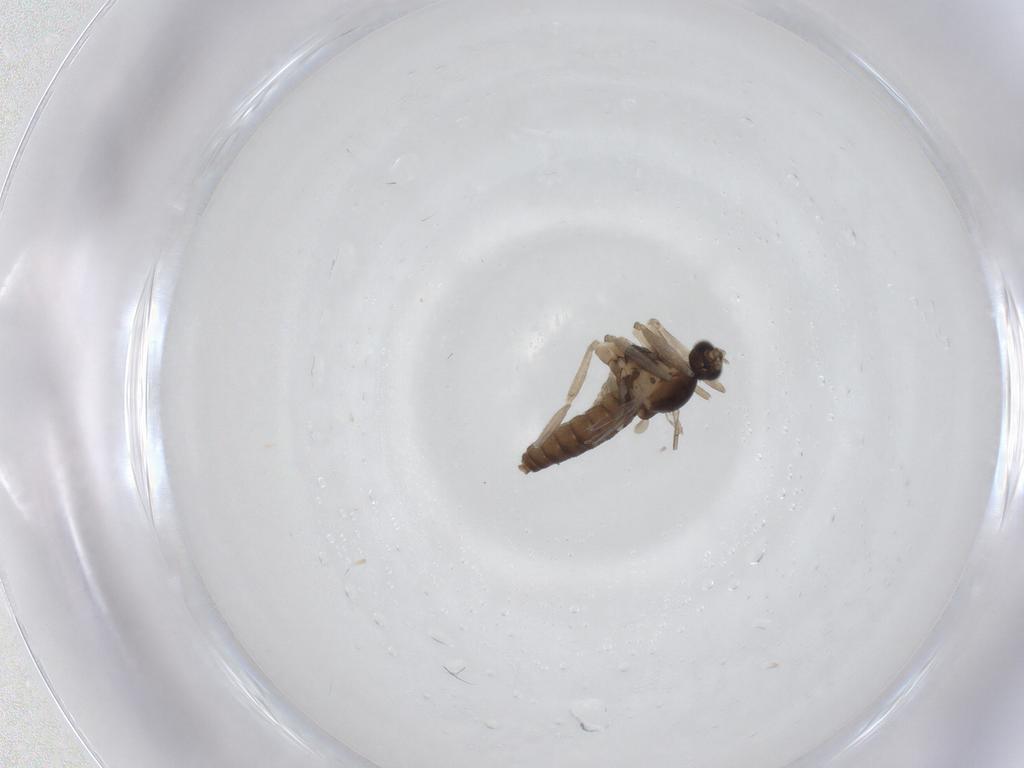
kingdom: Animalia
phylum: Arthropoda
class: Insecta
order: Diptera
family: Cecidomyiidae
